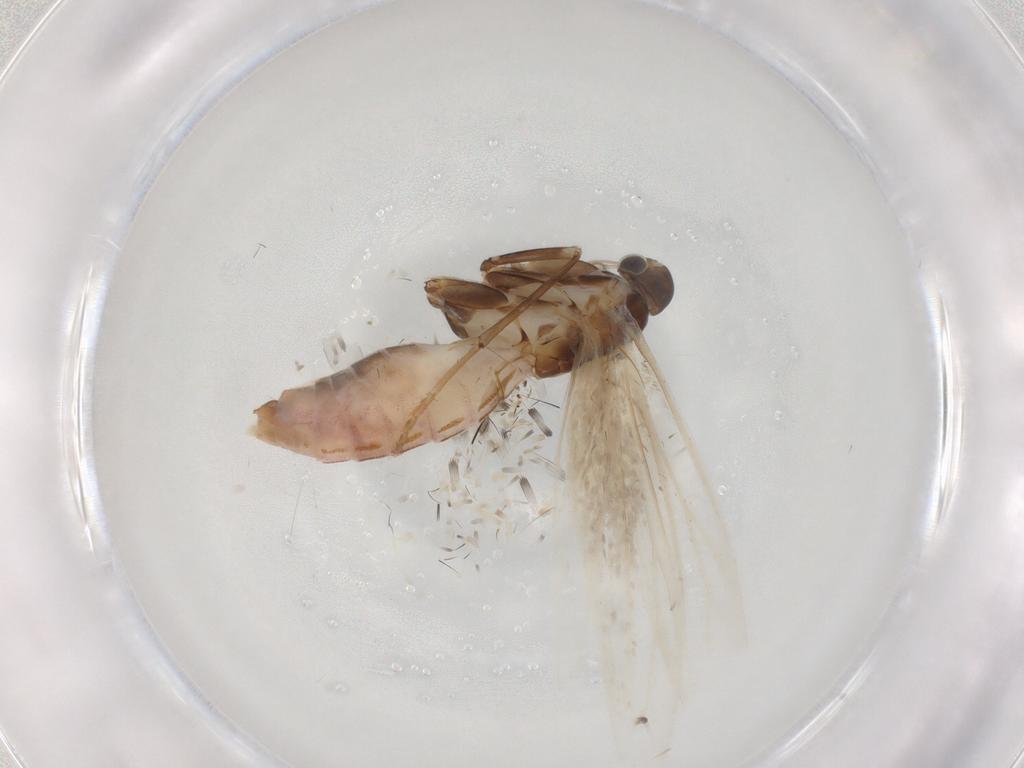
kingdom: Animalia
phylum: Arthropoda
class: Insecta
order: Lepidoptera
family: Coleophoridae
